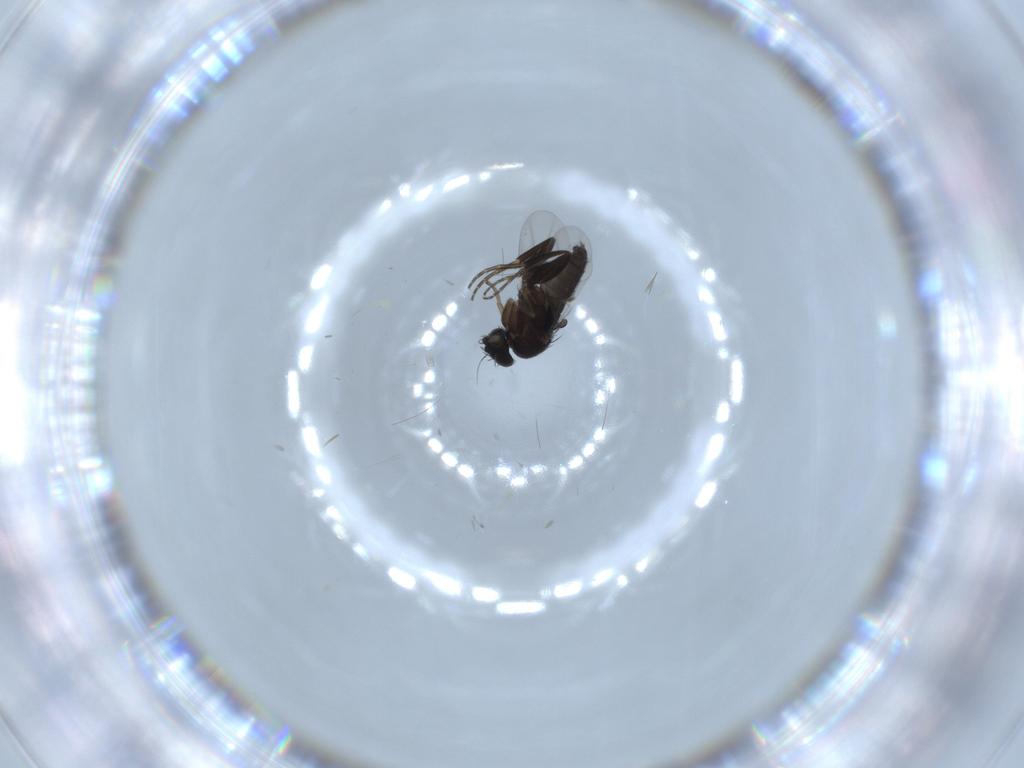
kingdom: Animalia
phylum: Arthropoda
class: Insecta
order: Diptera
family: Phoridae
